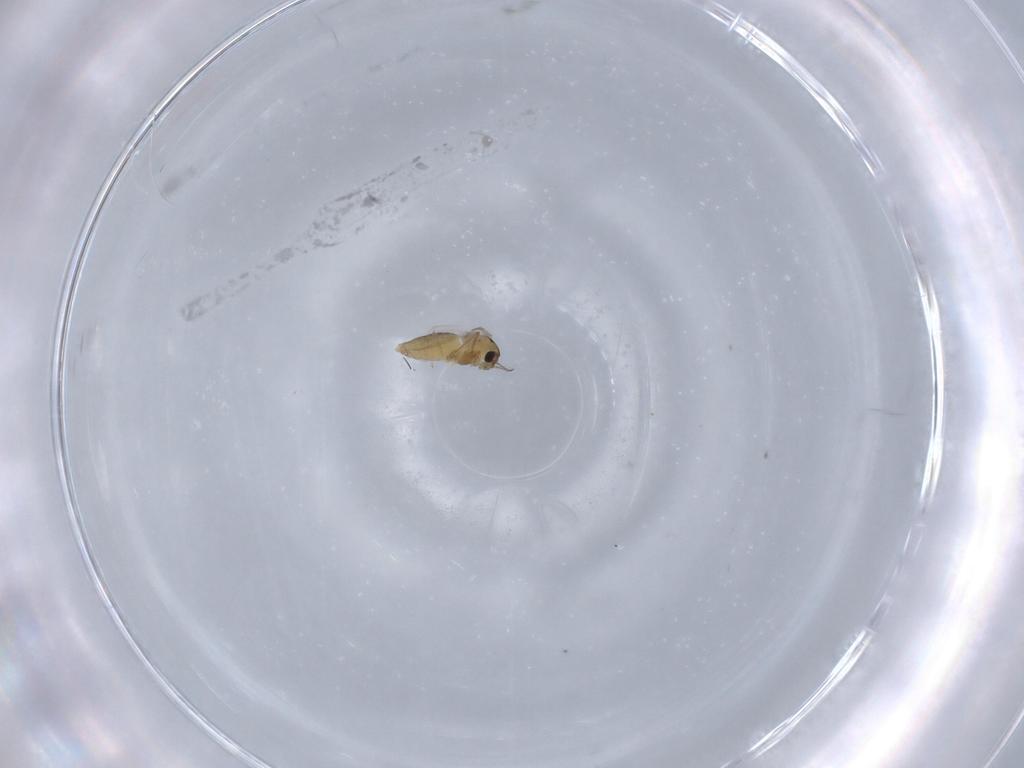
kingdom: Animalia
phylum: Arthropoda
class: Insecta
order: Diptera
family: Chironomidae
